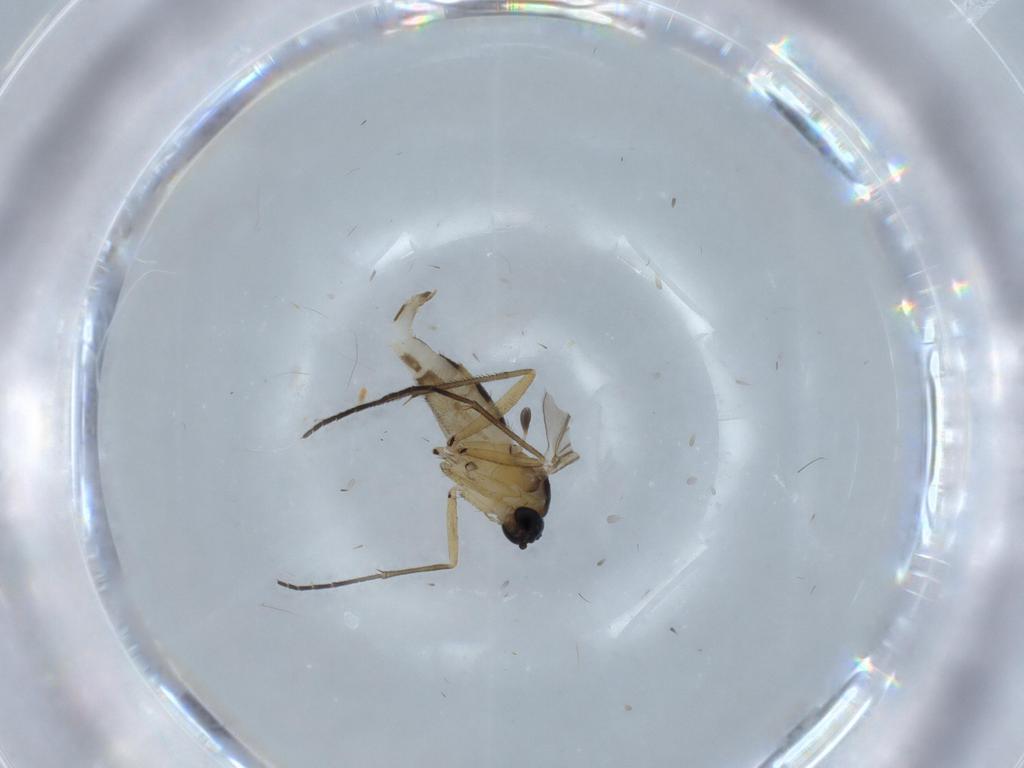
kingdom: Animalia
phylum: Arthropoda
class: Insecta
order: Diptera
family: Sciaridae
